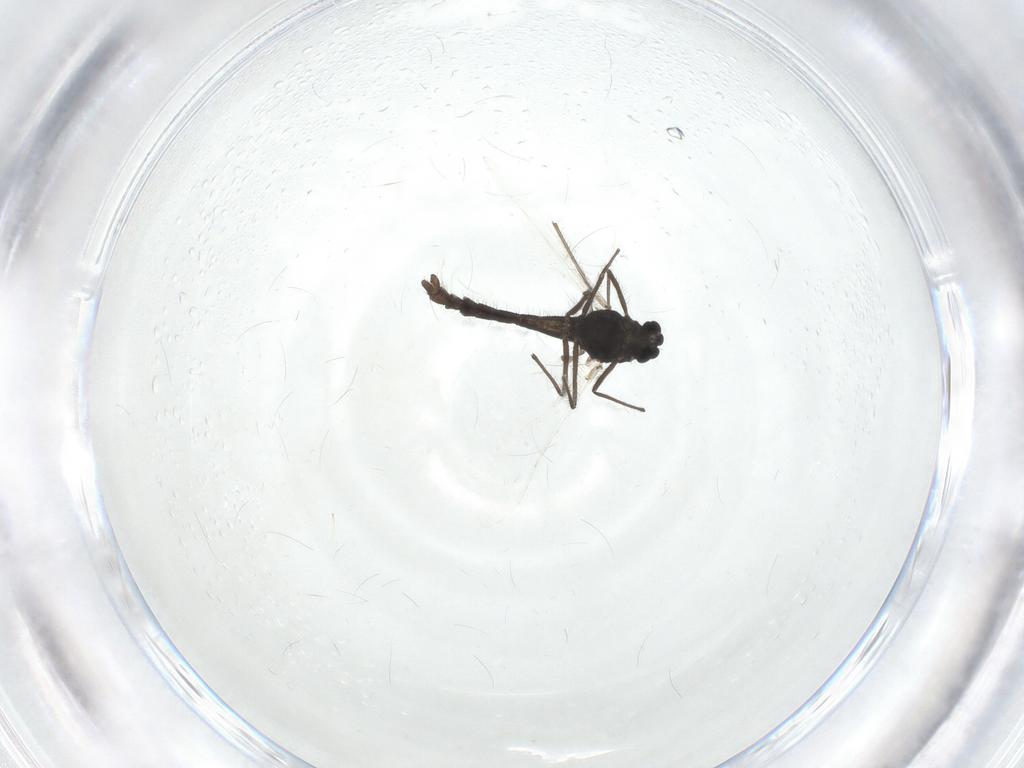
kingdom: Animalia
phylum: Arthropoda
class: Insecta
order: Diptera
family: Chironomidae
